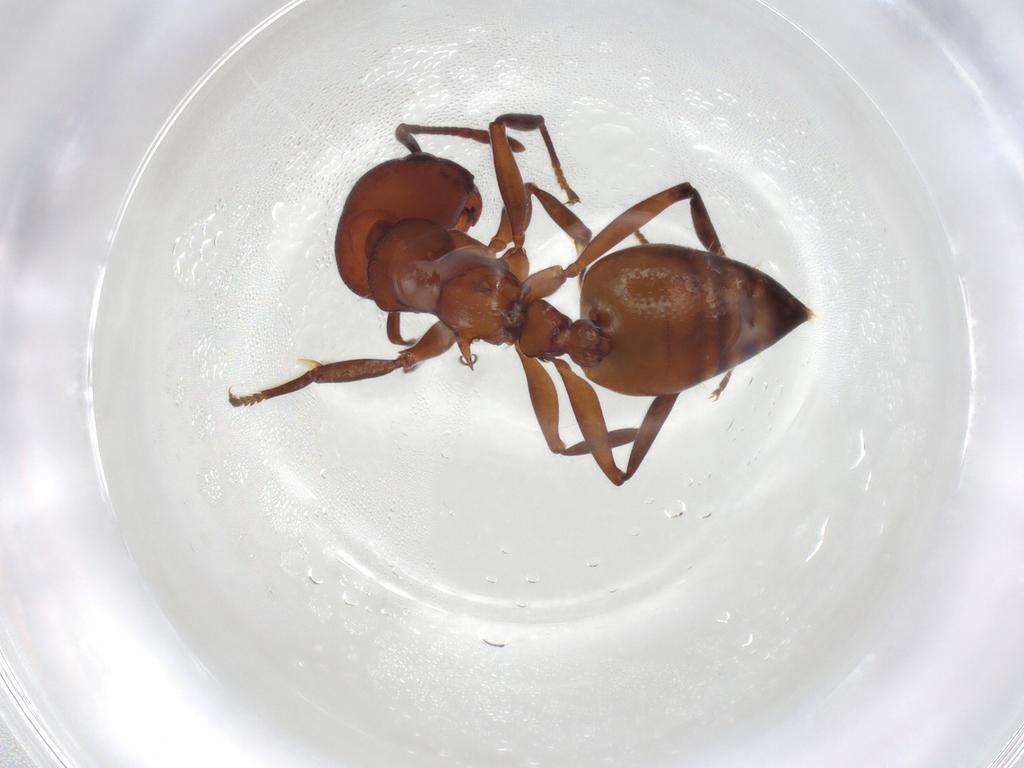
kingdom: Animalia
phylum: Arthropoda
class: Insecta
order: Hymenoptera
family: Formicidae
